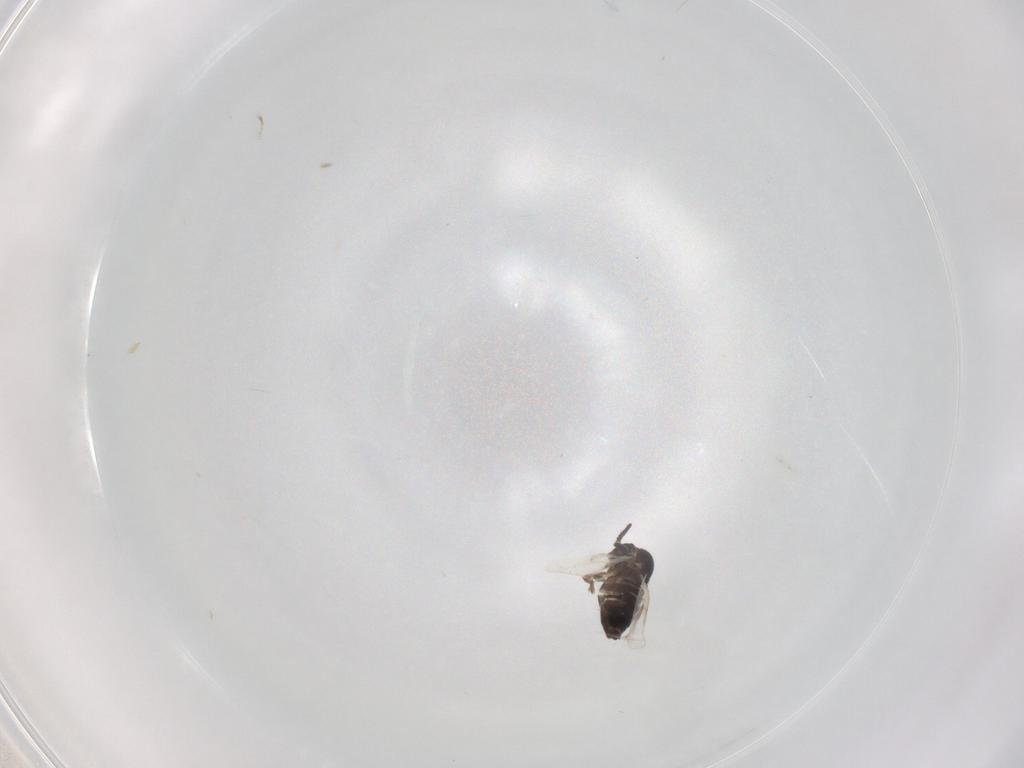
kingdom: Animalia
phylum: Arthropoda
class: Insecta
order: Diptera
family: Scatopsidae
